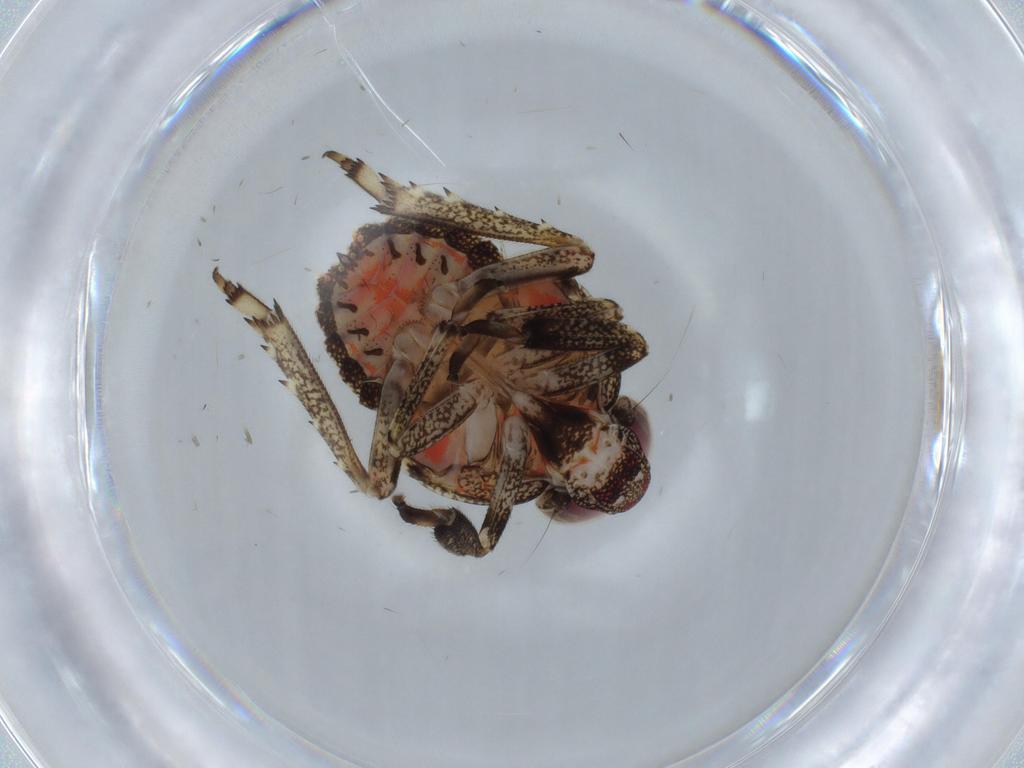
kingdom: Animalia
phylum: Arthropoda
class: Insecta
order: Hemiptera
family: Issidae
